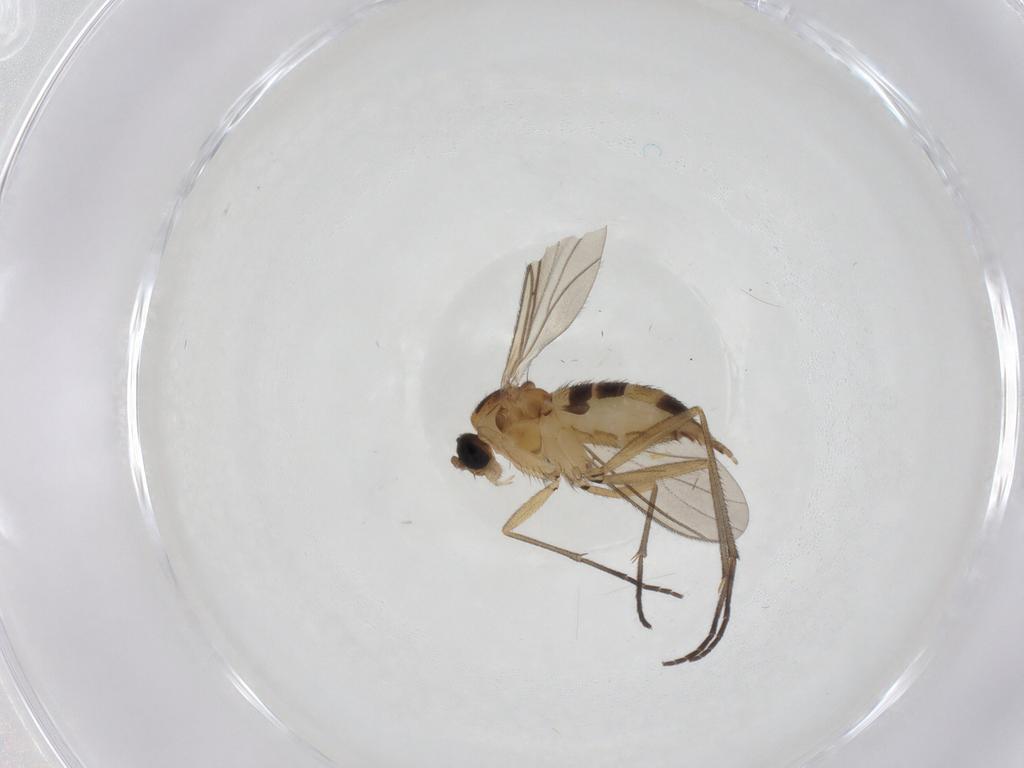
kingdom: Animalia
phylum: Arthropoda
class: Insecta
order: Diptera
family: Sciaridae
